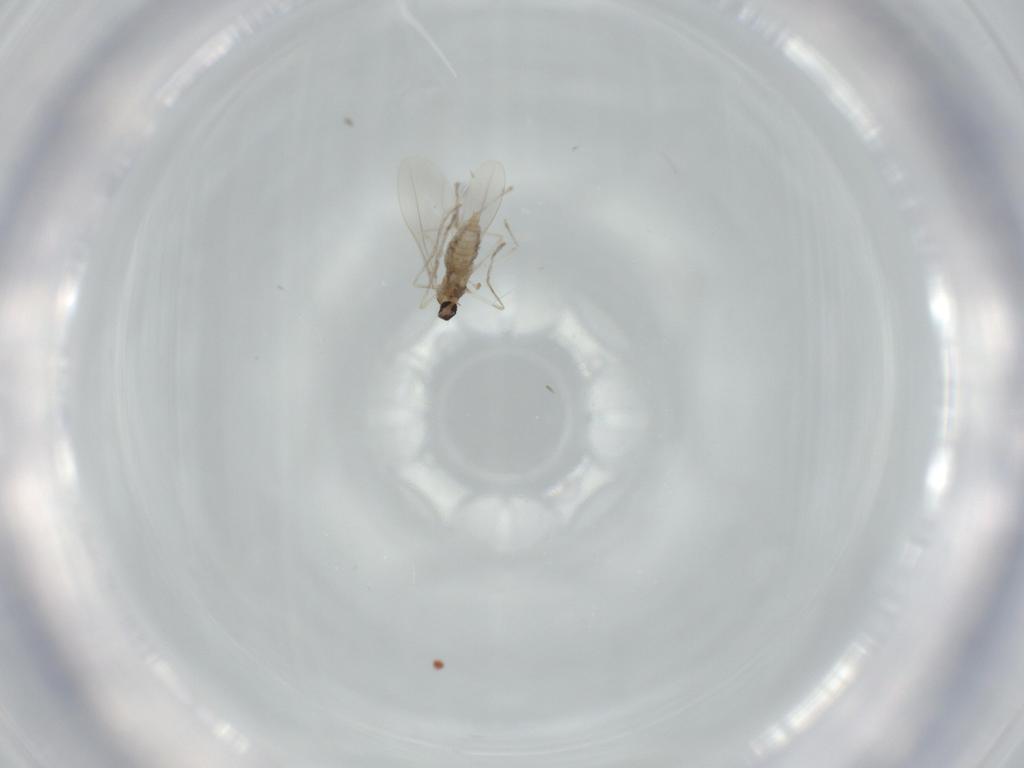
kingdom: Animalia
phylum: Arthropoda
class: Insecta
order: Diptera
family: Cecidomyiidae
